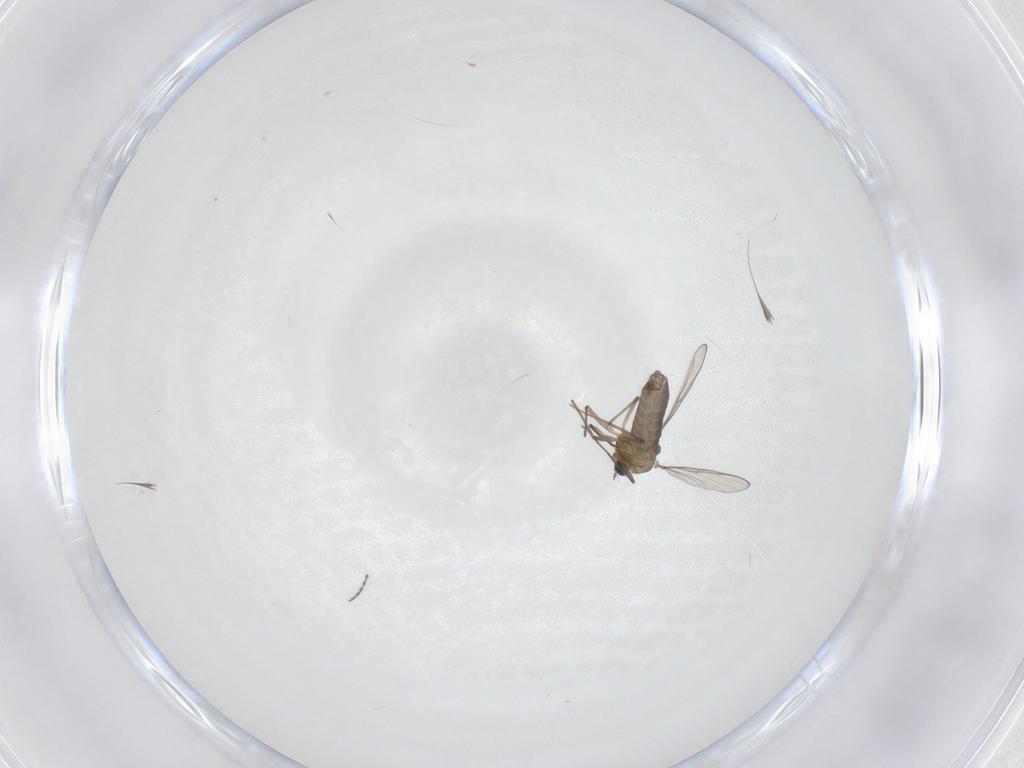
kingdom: Animalia
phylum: Arthropoda
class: Insecta
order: Diptera
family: Chironomidae
